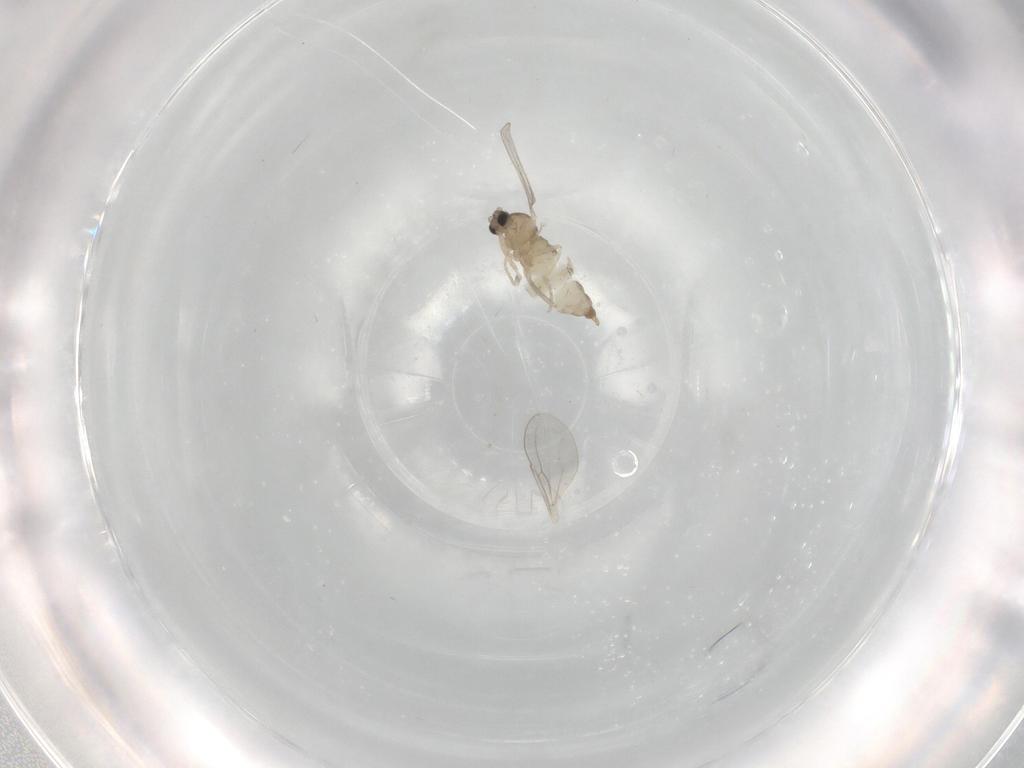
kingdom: Animalia
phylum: Arthropoda
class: Insecta
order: Diptera
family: Cecidomyiidae
